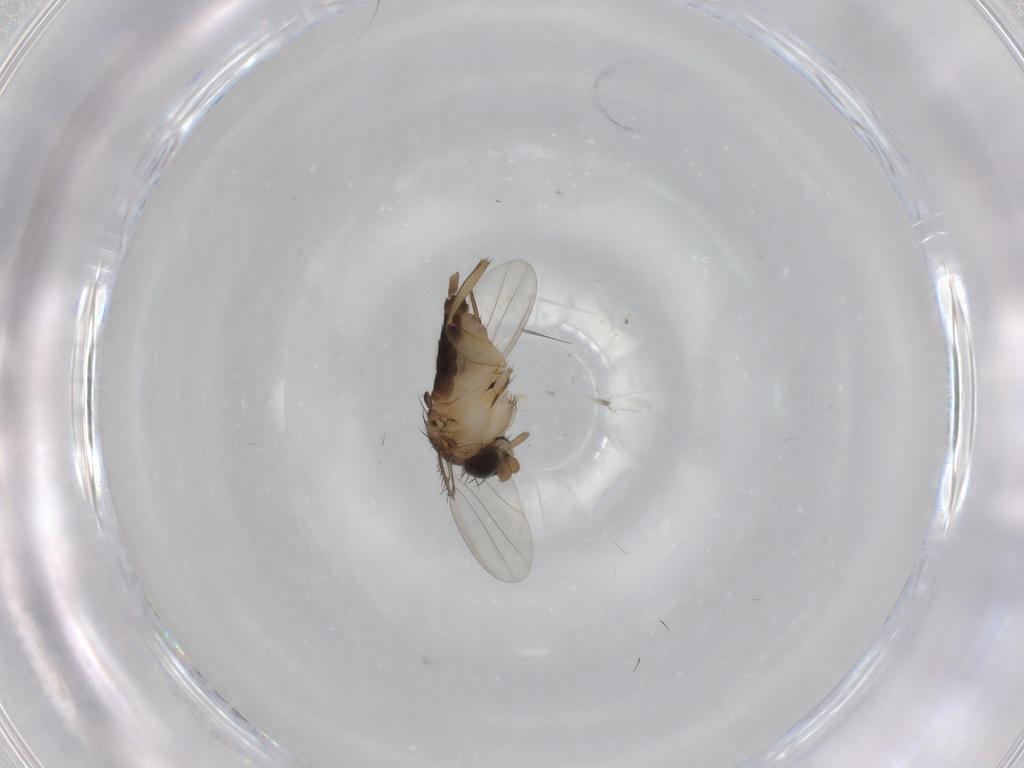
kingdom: Animalia
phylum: Arthropoda
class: Insecta
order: Diptera
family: Phoridae
